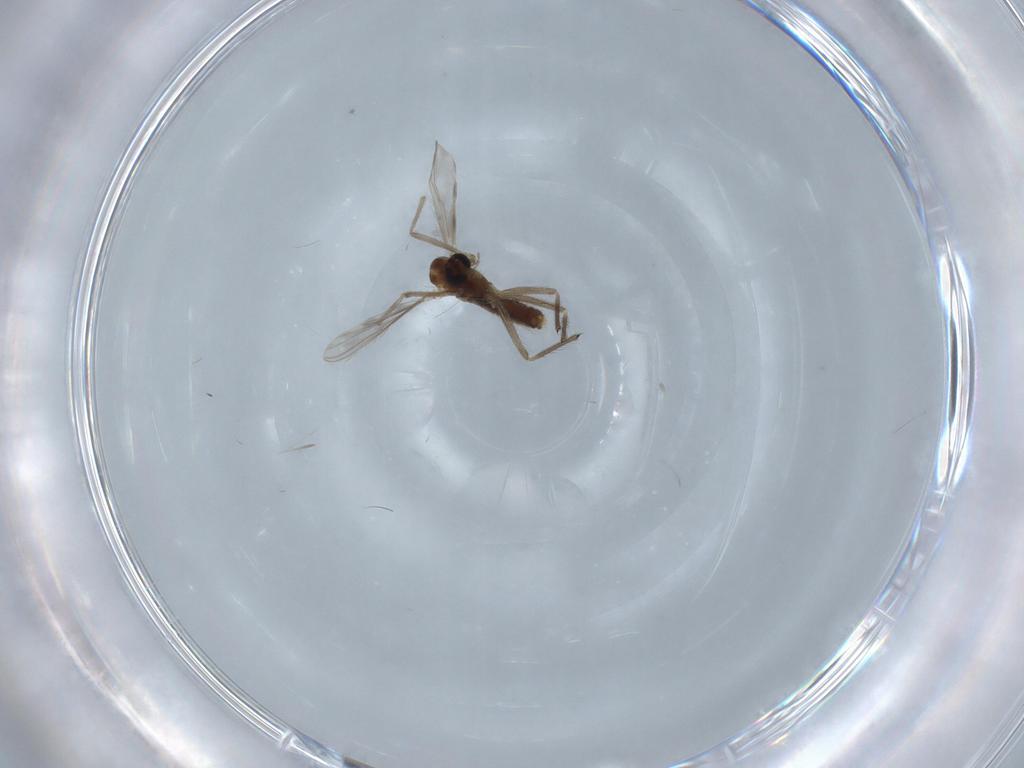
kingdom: Animalia
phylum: Arthropoda
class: Insecta
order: Diptera
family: Chironomidae
